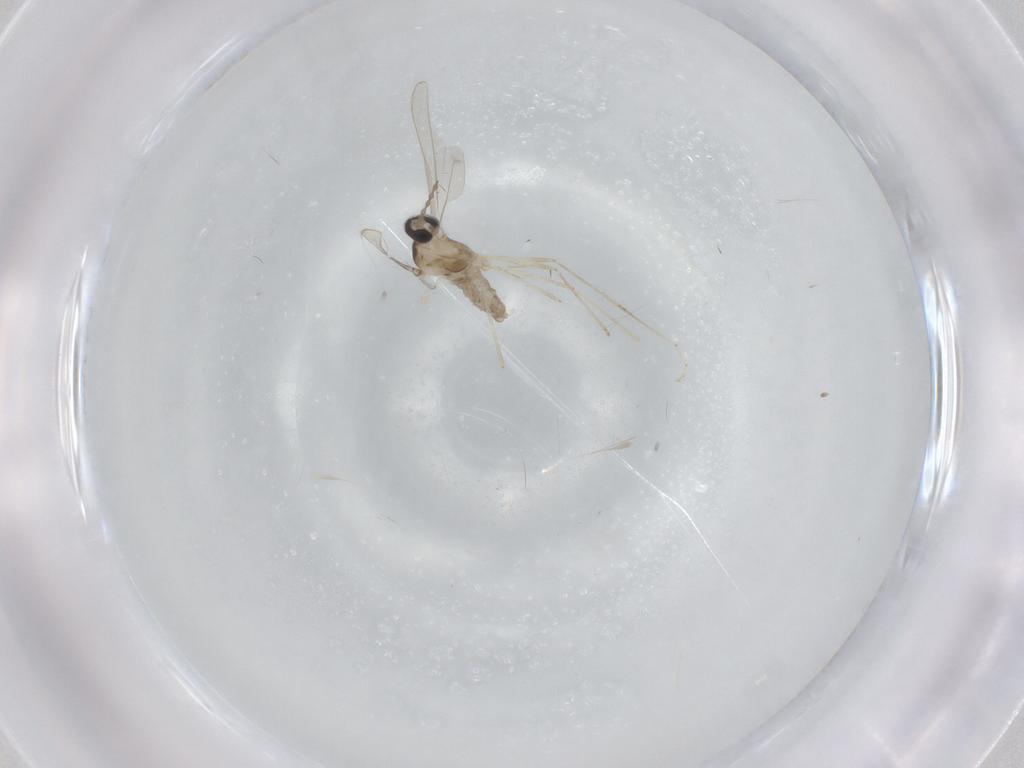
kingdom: Animalia
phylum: Arthropoda
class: Insecta
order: Diptera
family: Cecidomyiidae
